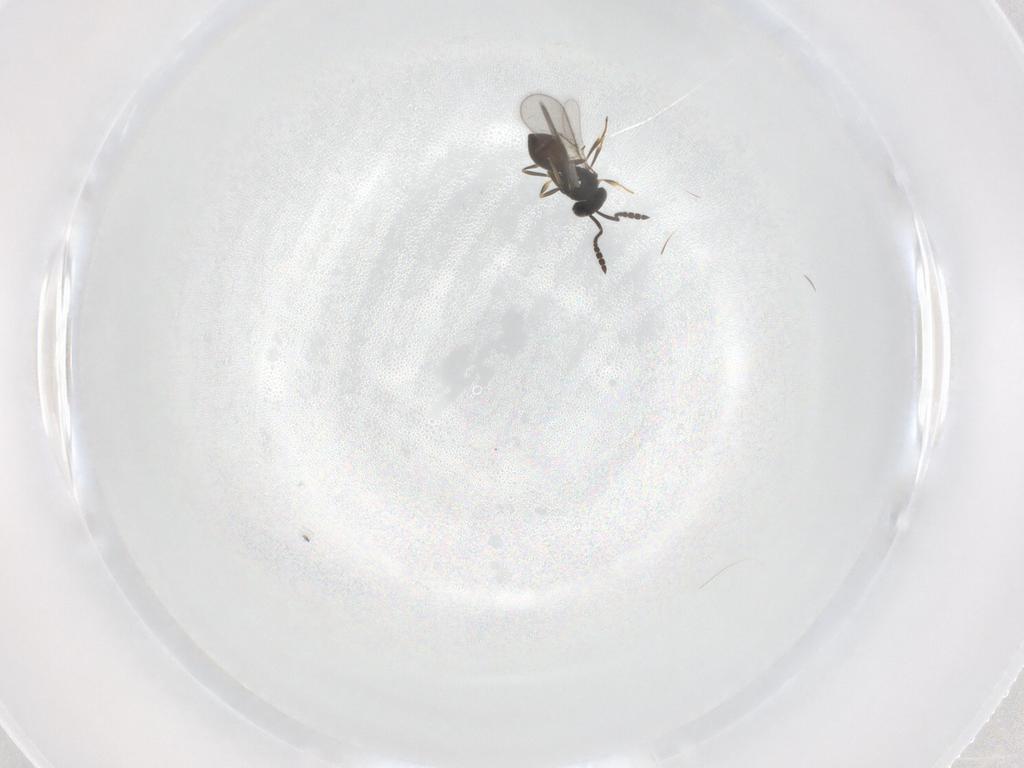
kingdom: Animalia
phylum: Arthropoda
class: Insecta
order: Hymenoptera
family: Scelionidae
